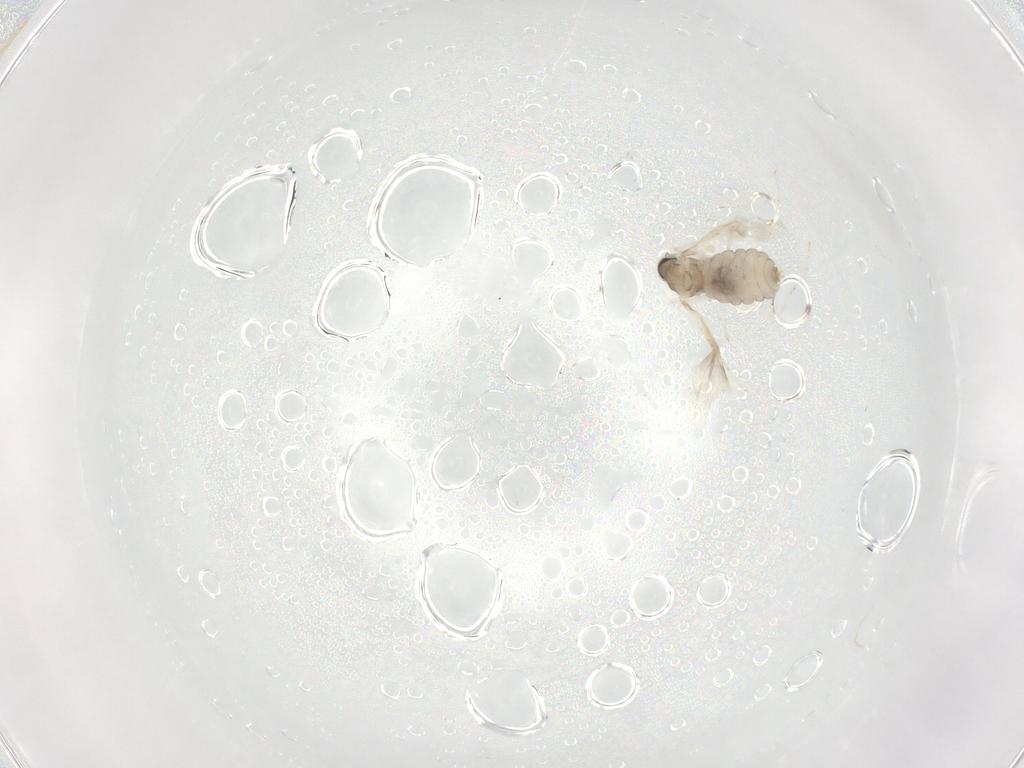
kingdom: Animalia
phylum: Arthropoda
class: Insecta
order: Diptera
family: Cecidomyiidae
